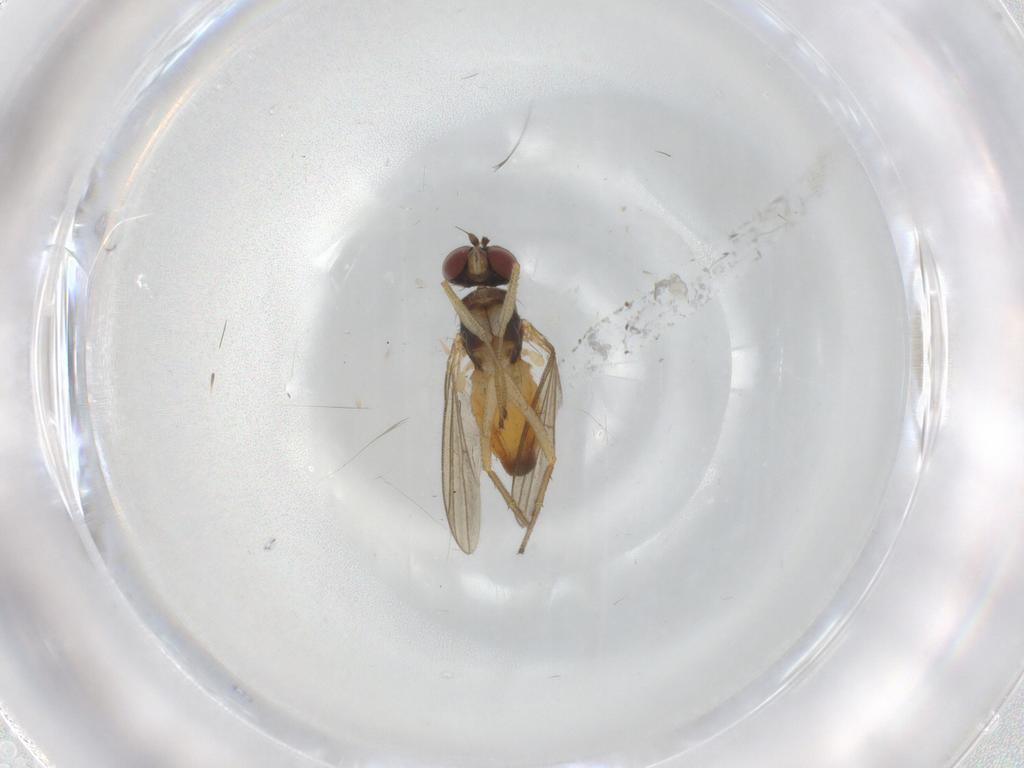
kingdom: Animalia
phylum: Arthropoda
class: Insecta
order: Diptera
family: Dolichopodidae
